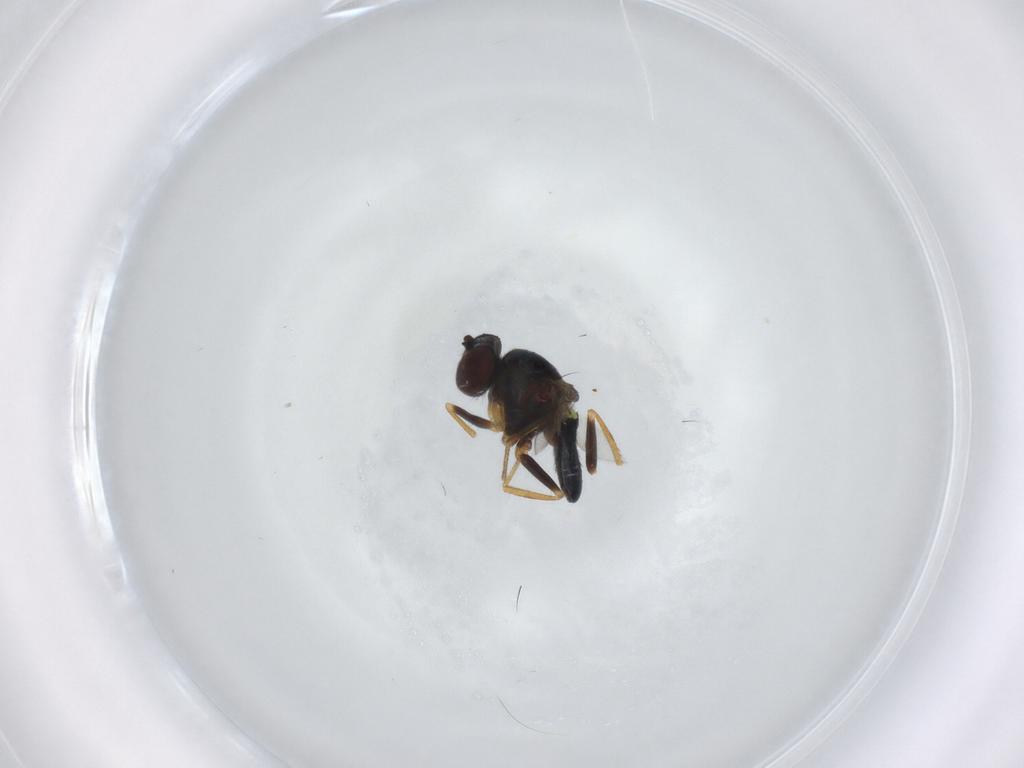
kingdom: Animalia
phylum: Arthropoda
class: Insecta
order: Diptera
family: Ephydridae
